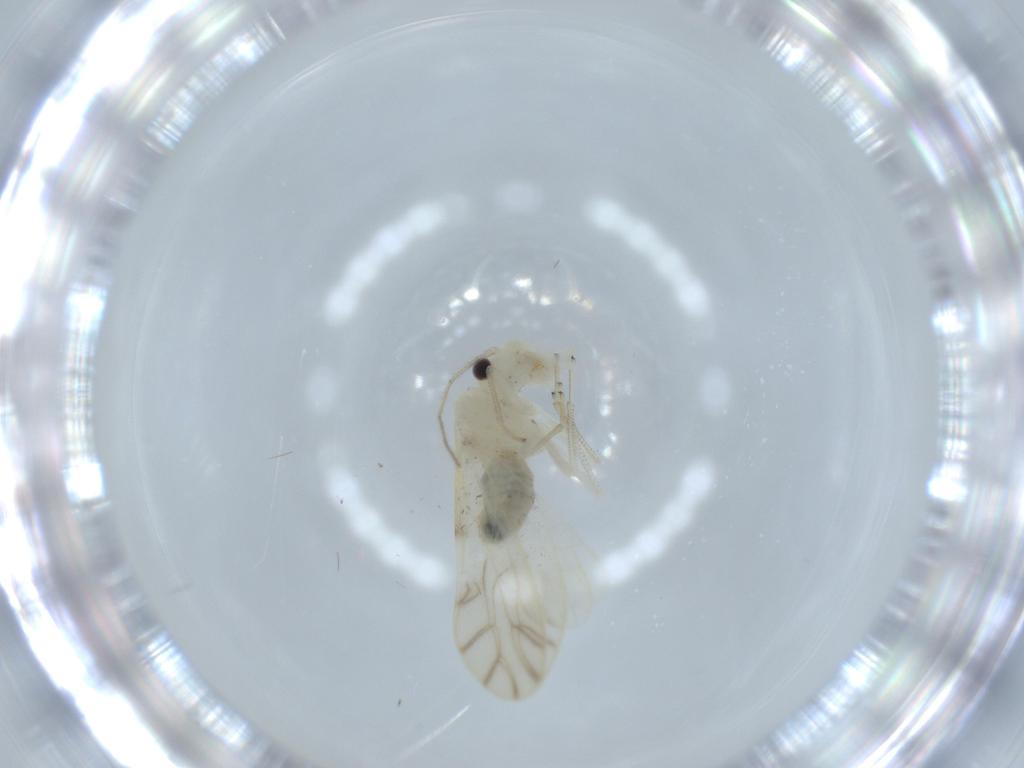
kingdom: Animalia
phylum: Arthropoda
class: Insecta
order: Psocodea
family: Caeciliusidae
